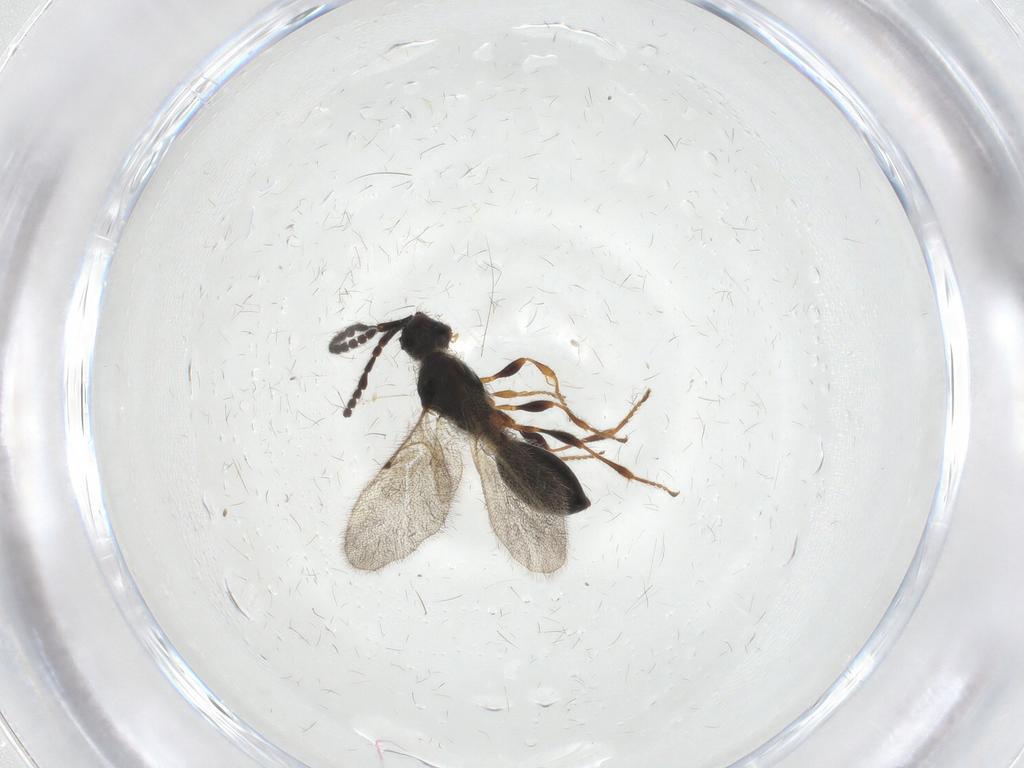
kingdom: Animalia
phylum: Arthropoda
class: Insecta
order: Hymenoptera
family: Diapriidae
